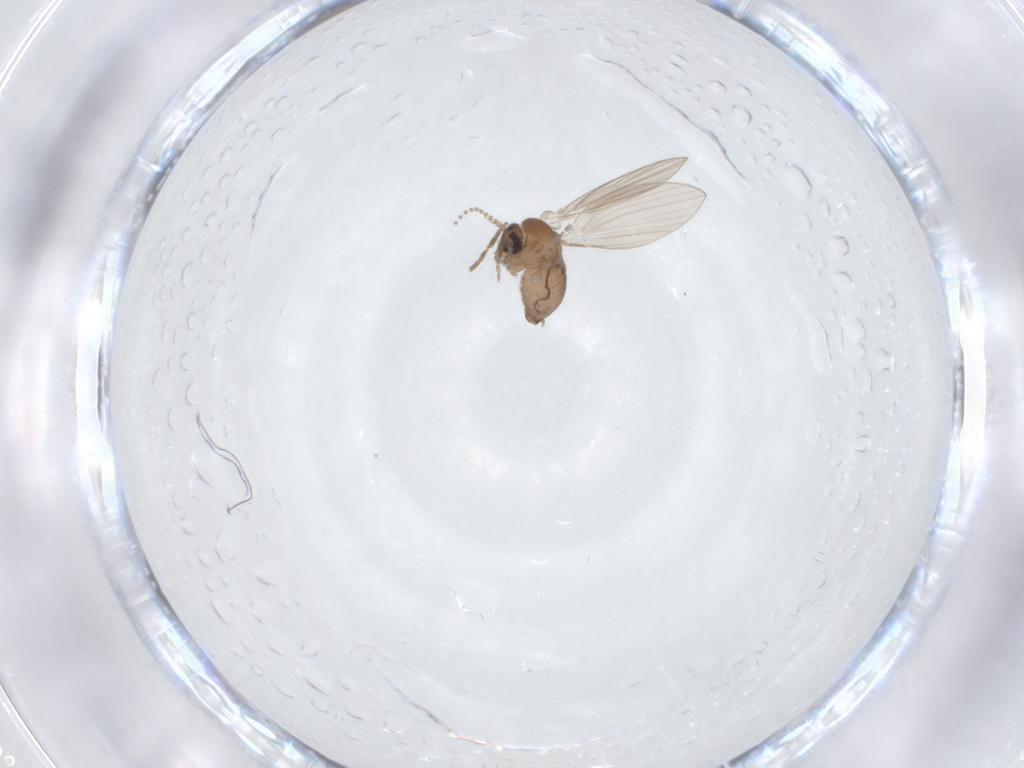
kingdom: Animalia
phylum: Arthropoda
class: Insecta
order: Diptera
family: Psychodidae
